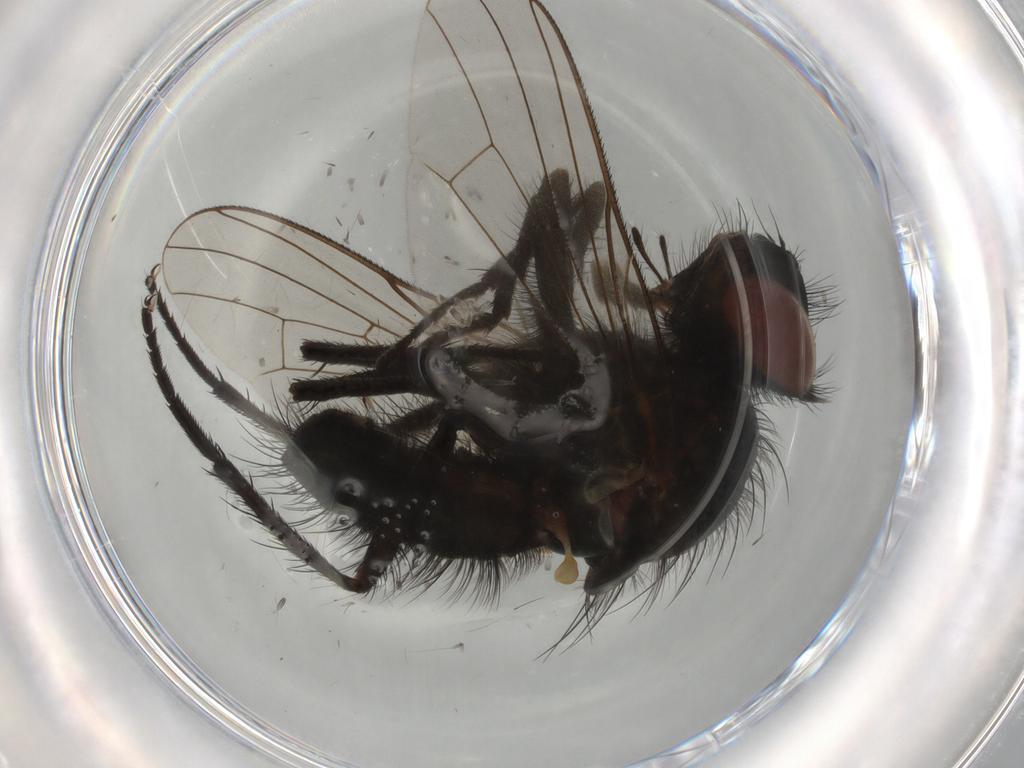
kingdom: Animalia
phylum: Arthropoda
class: Insecta
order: Diptera
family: Anthomyiidae
